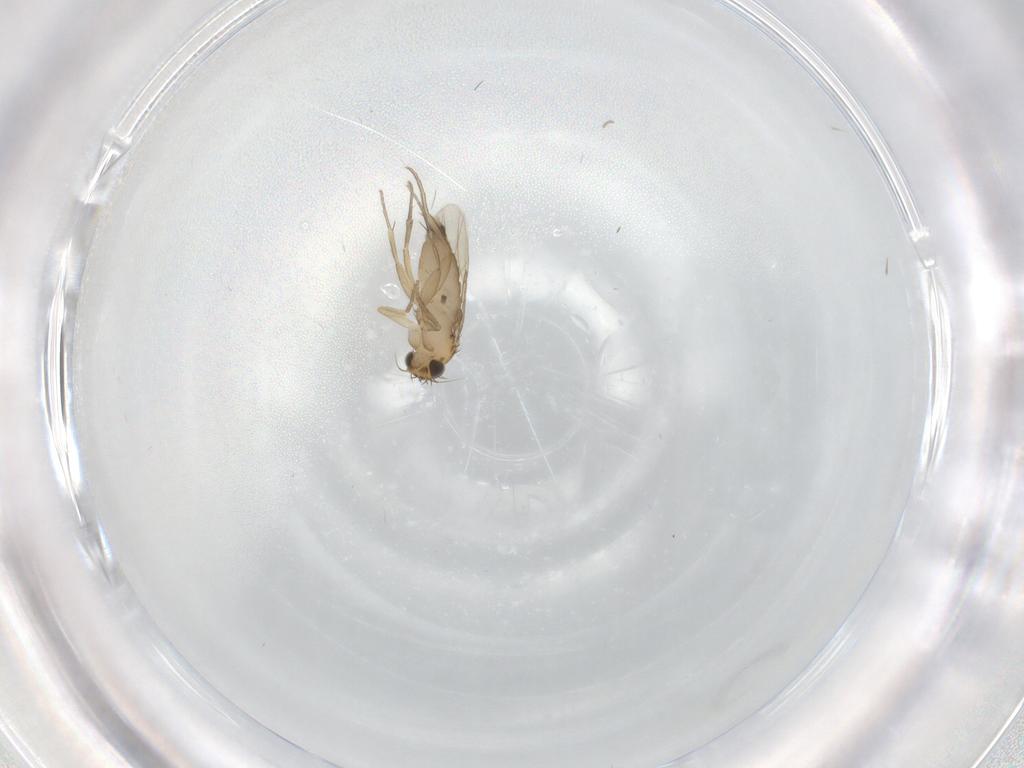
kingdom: Animalia
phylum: Arthropoda
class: Insecta
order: Diptera
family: Phoridae
